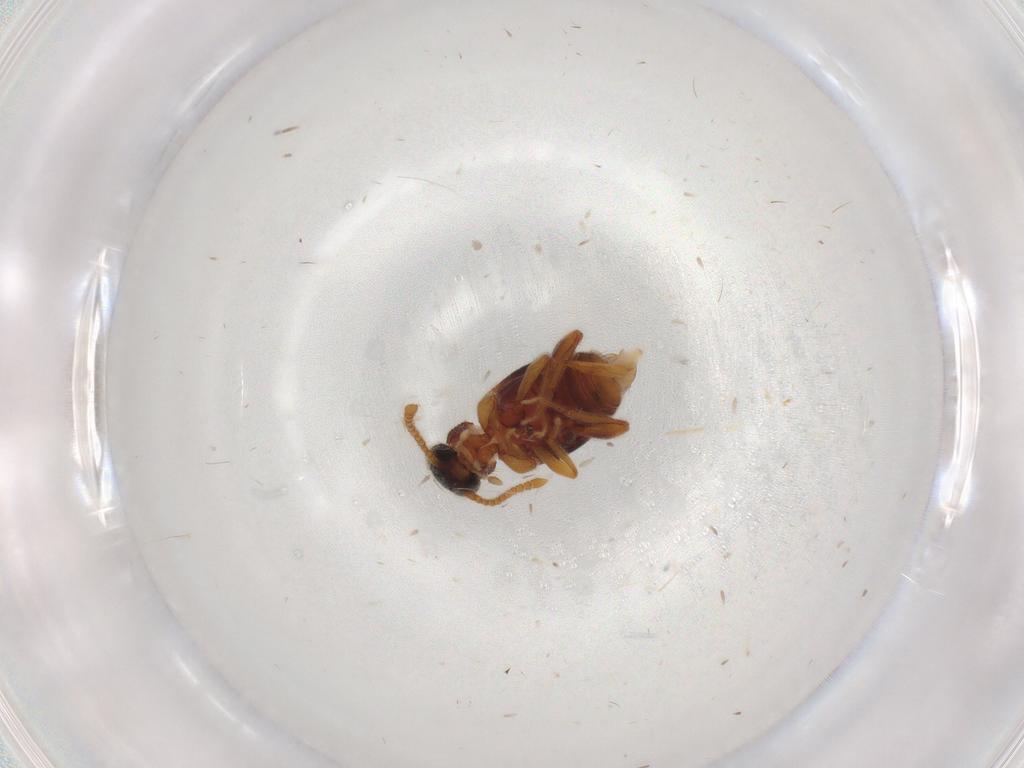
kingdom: Animalia
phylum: Arthropoda
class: Insecta
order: Coleoptera
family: Aderidae
